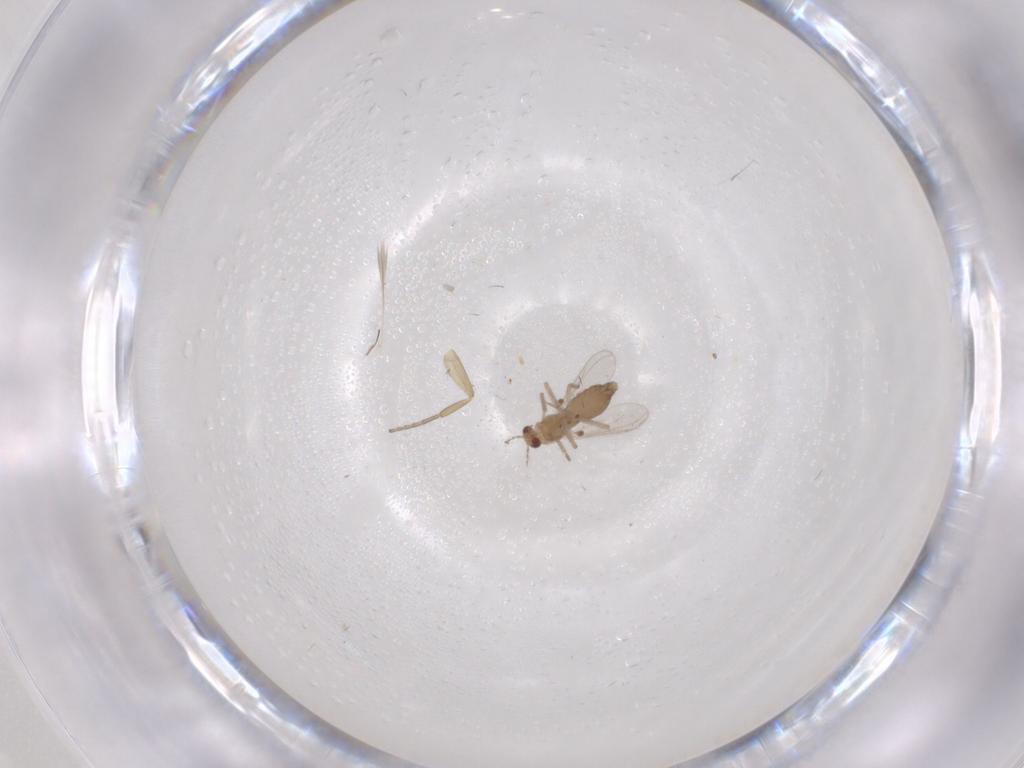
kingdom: Animalia
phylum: Arthropoda
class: Insecta
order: Diptera
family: Chironomidae
